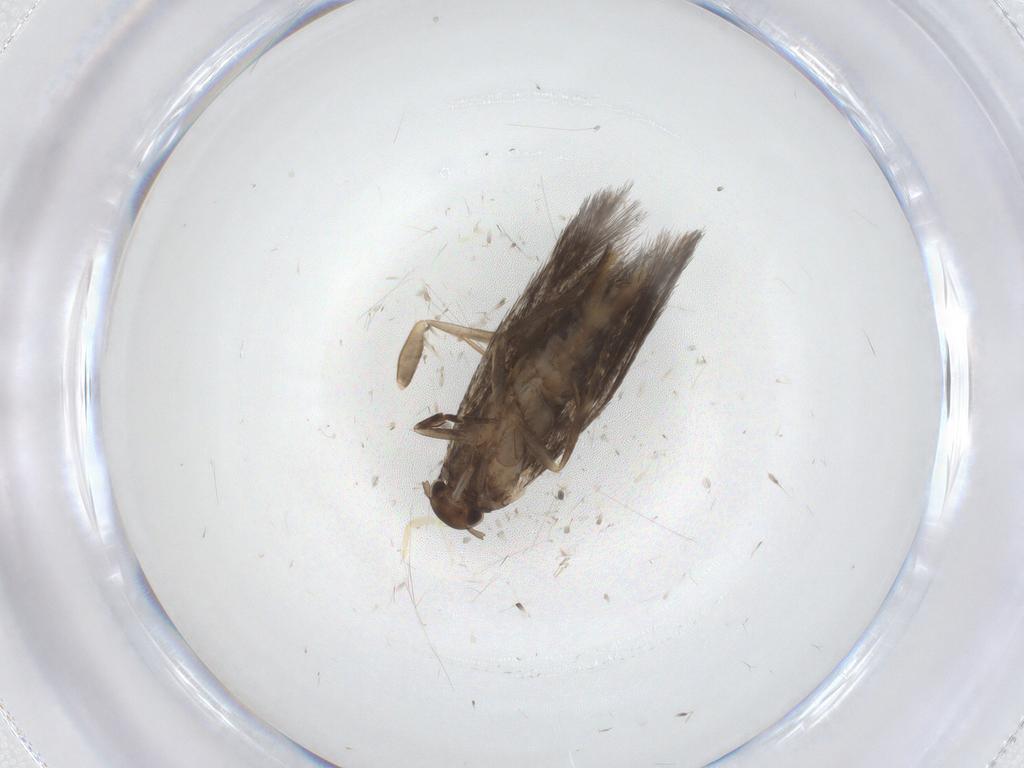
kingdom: Animalia
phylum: Arthropoda
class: Insecta
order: Lepidoptera
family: Elachistidae
